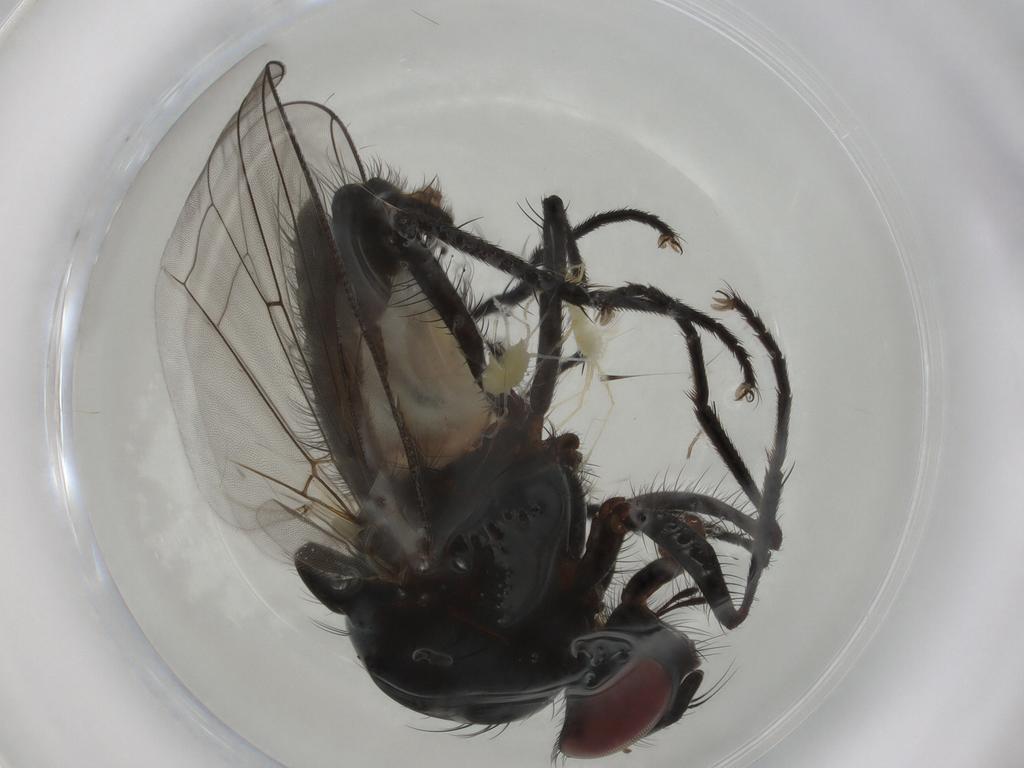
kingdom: Animalia
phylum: Arthropoda
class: Insecta
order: Diptera
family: Anthomyiidae
